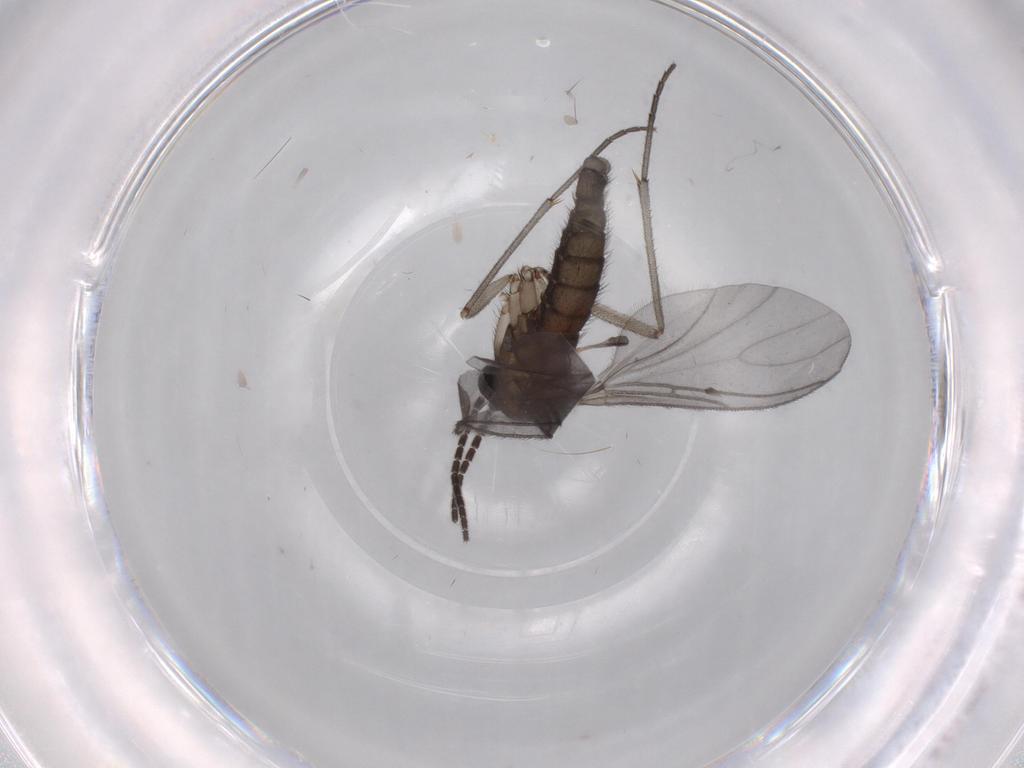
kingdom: Animalia
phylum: Arthropoda
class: Insecta
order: Diptera
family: Sciaridae
